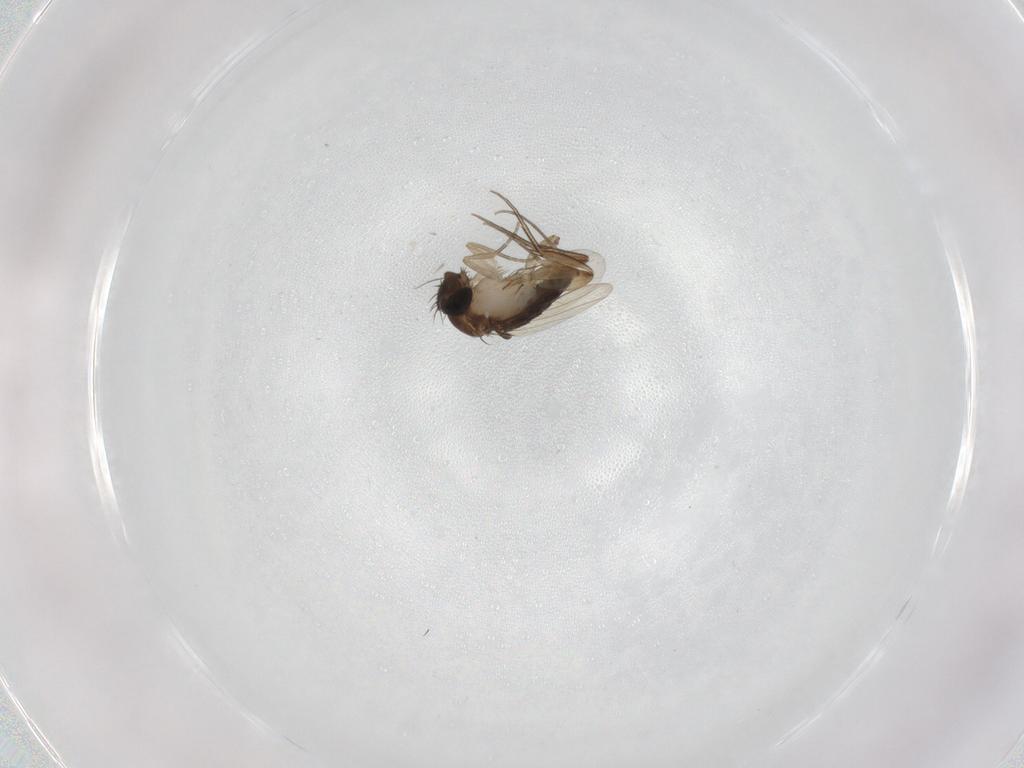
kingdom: Animalia
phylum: Arthropoda
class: Insecta
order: Diptera
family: Phoridae
